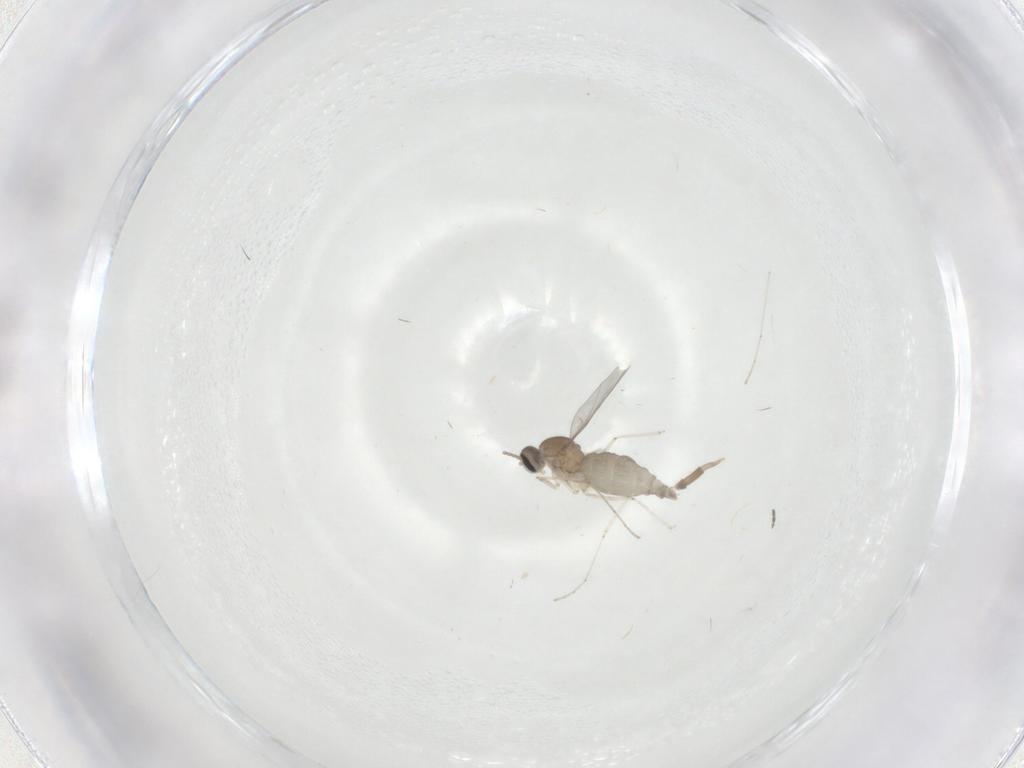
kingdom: Animalia
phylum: Arthropoda
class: Insecta
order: Diptera
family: Sciaridae
